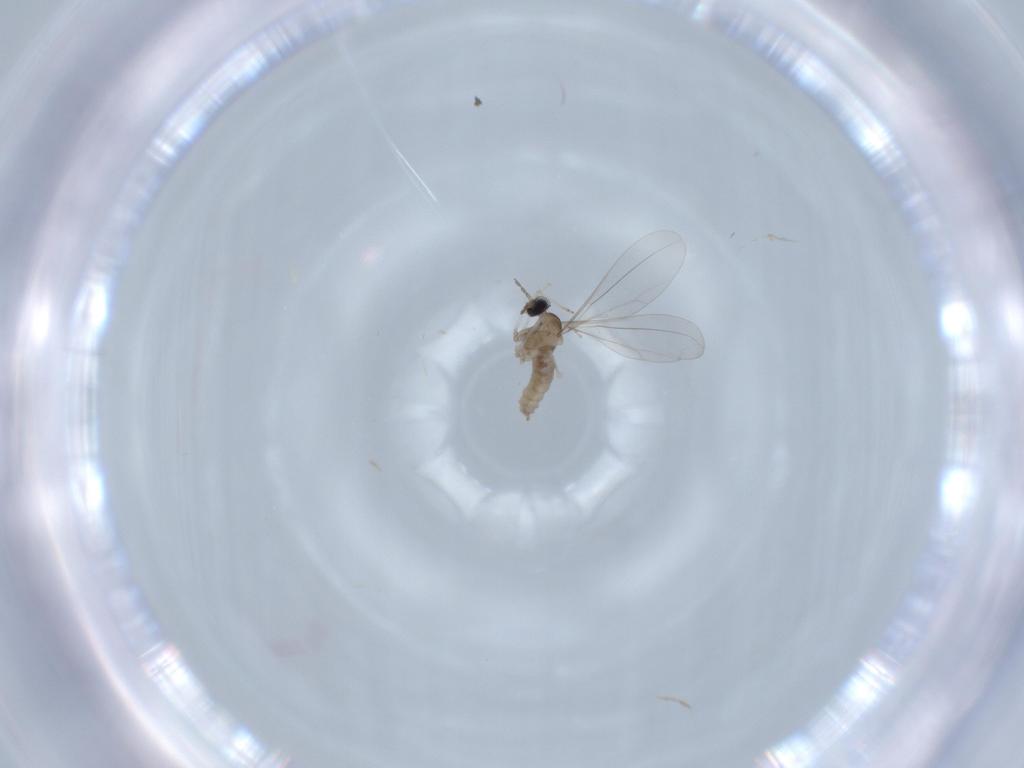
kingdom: Animalia
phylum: Arthropoda
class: Insecta
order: Diptera
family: Cecidomyiidae
